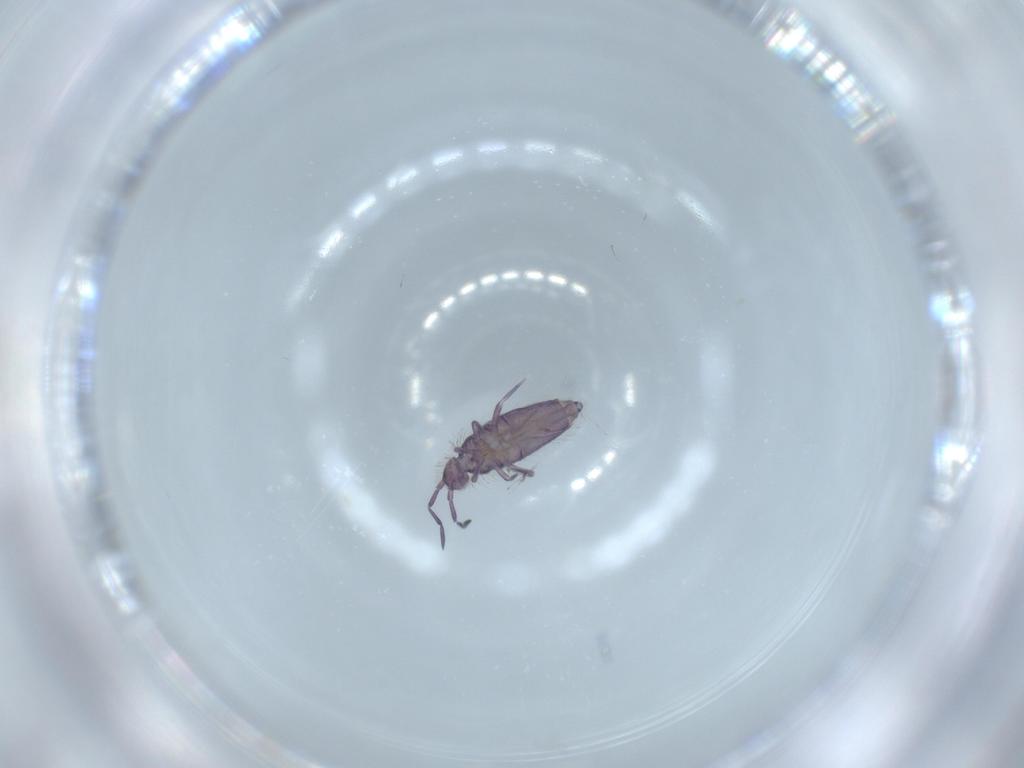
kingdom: Animalia
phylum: Arthropoda
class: Collembola
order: Entomobryomorpha
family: Entomobryidae
